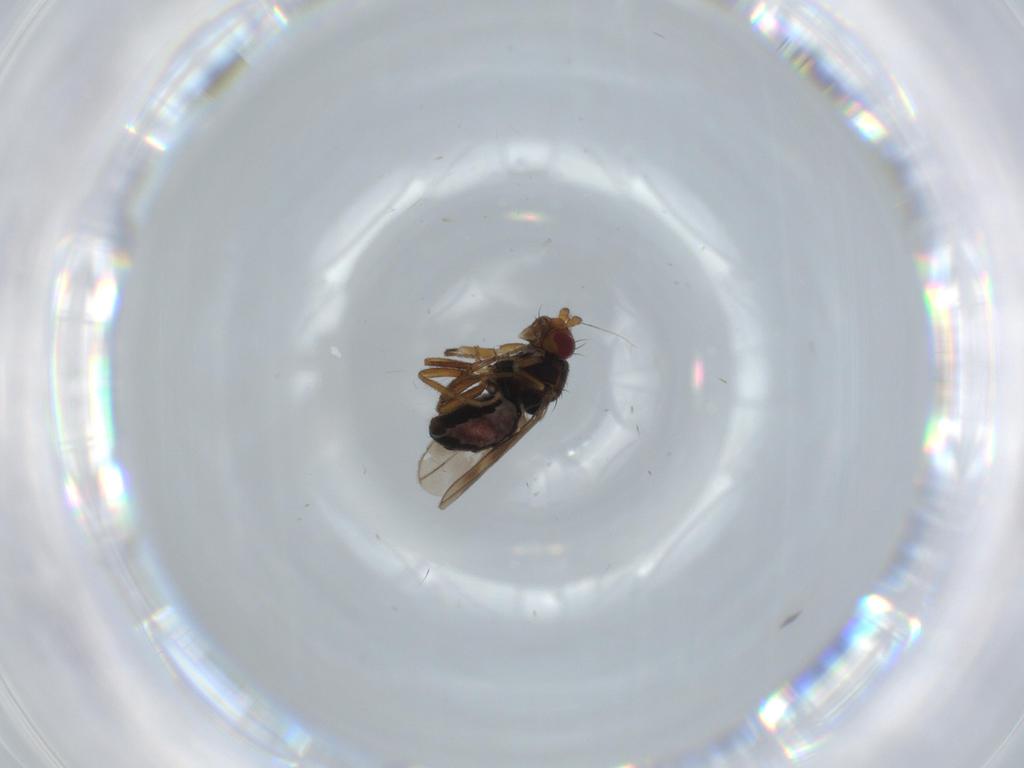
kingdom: Animalia
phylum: Arthropoda
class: Insecta
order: Diptera
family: Sphaeroceridae
